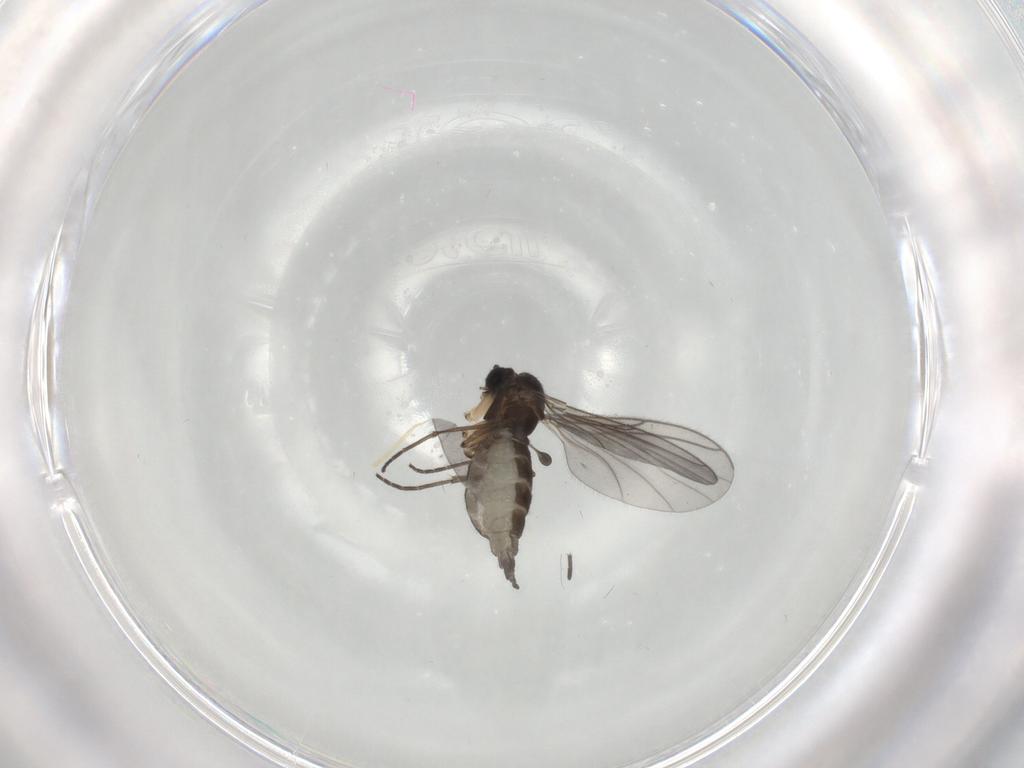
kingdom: Animalia
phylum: Arthropoda
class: Insecta
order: Diptera
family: Sciaridae
